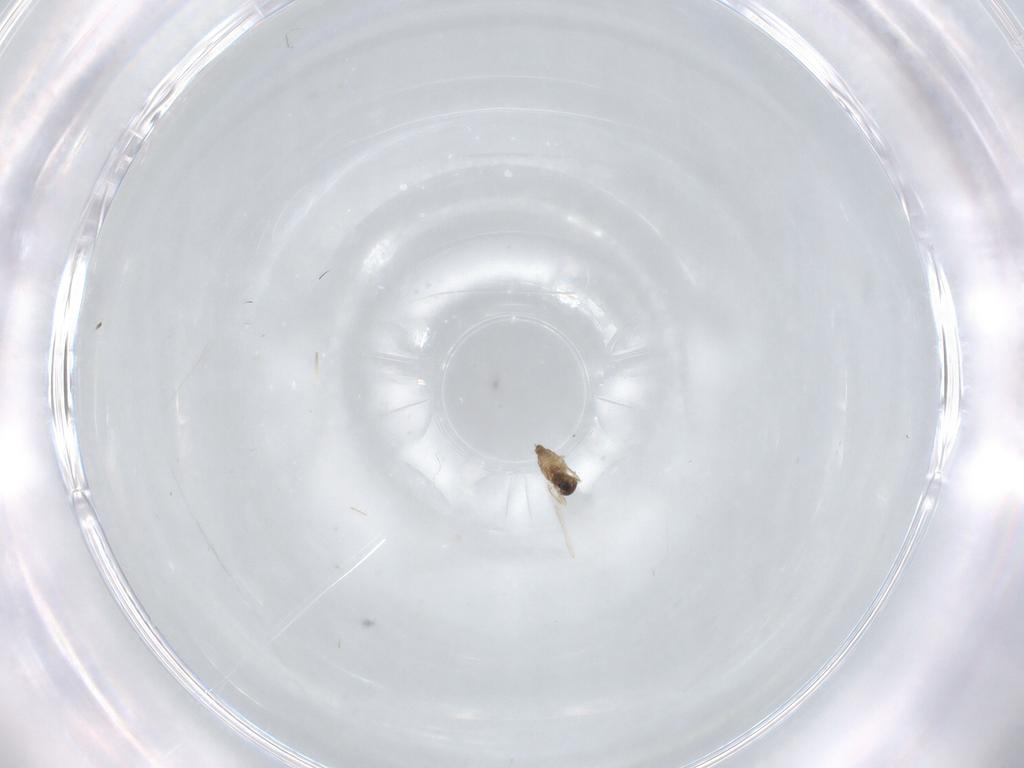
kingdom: Animalia
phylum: Arthropoda
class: Insecta
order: Diptera
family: Cecidomyiidae
